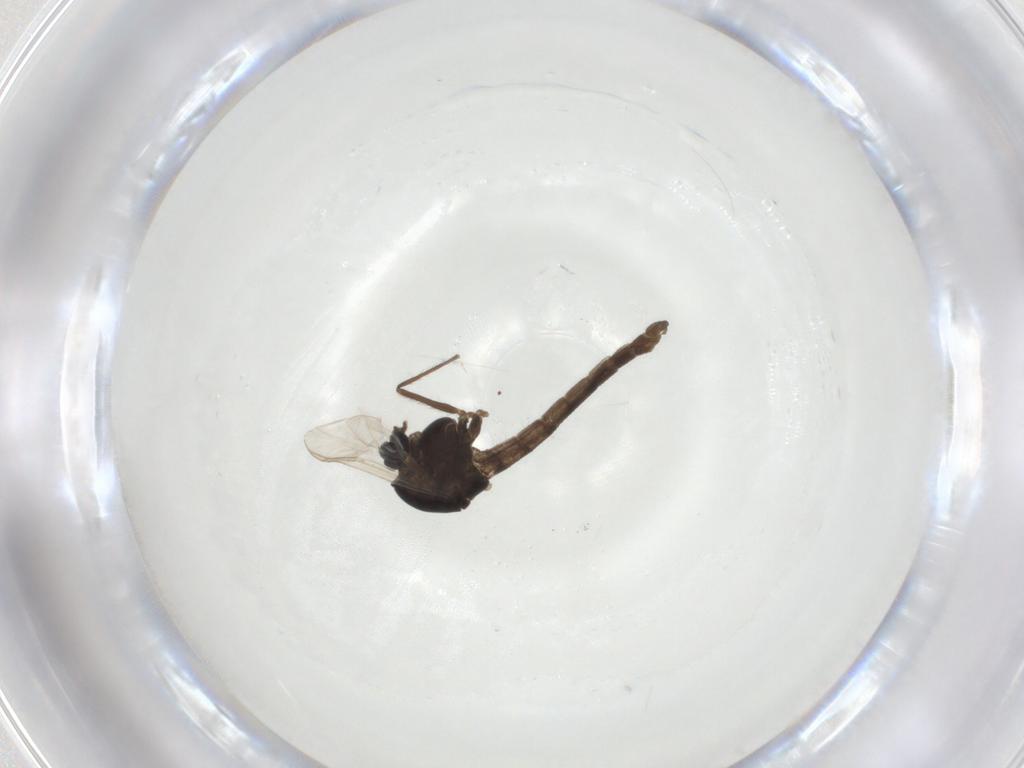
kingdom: Animalia
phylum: Arthropoda
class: Insecta
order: Diptera
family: Chironomidae
